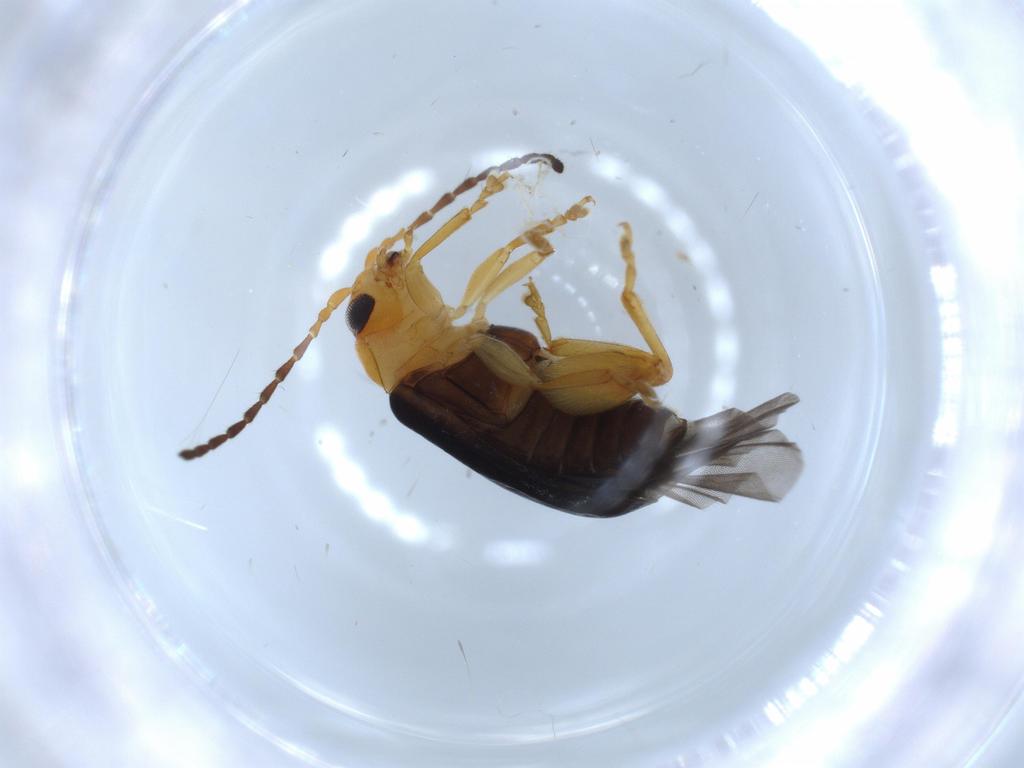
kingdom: Animalia
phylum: Arthropoda
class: Insecta
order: Coleoptera
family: Chrysomelidae
